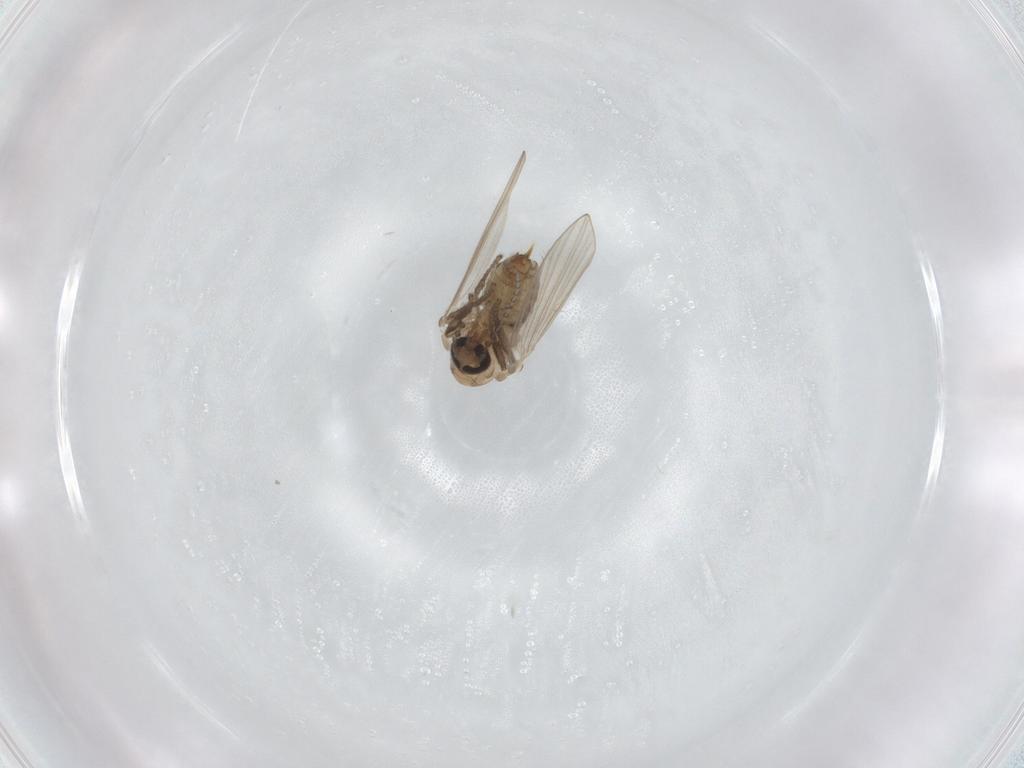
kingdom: Animalia
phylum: Arthropoda
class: Insecta
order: Diptera
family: Psychodidae
